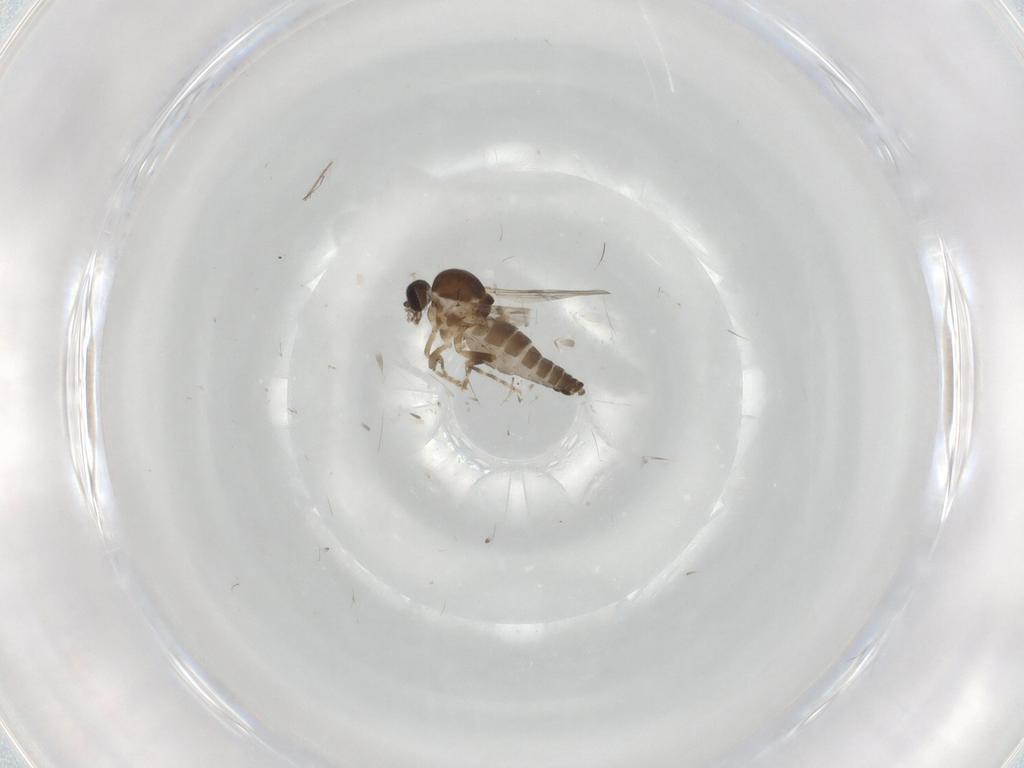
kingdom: Animalia
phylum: Arthropoda
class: Insecta
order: Diptera
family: Ceratopogonidae
